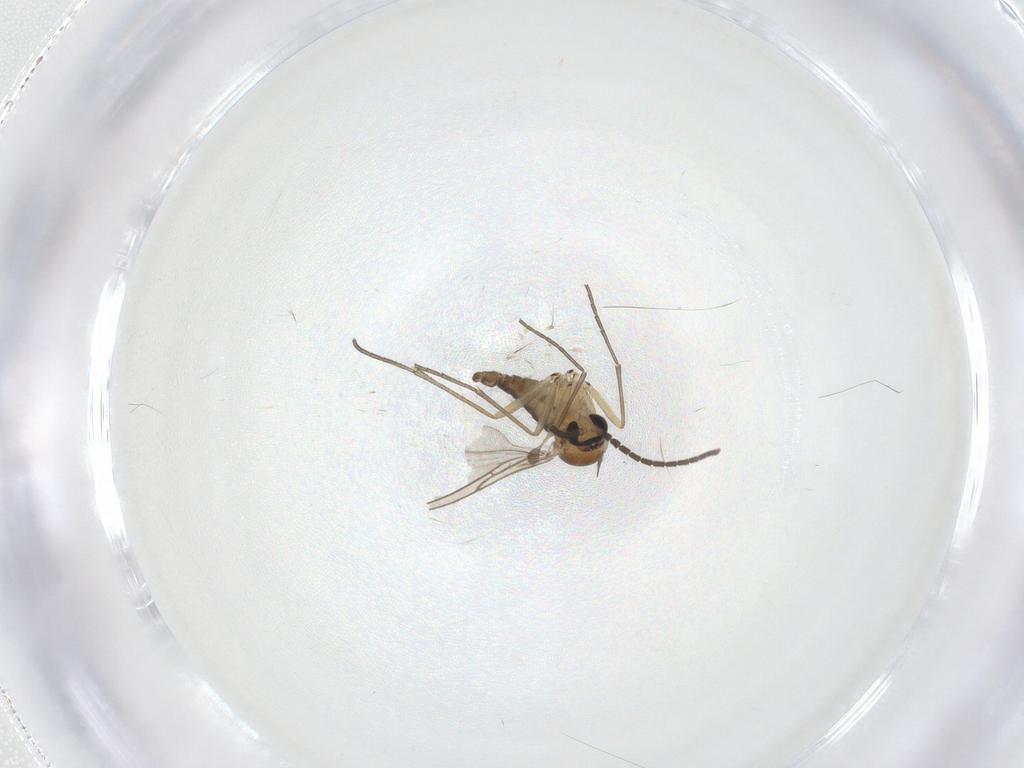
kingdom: Animalia
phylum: Arthropoda
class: Insecta
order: Diptera
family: Sciaridae
